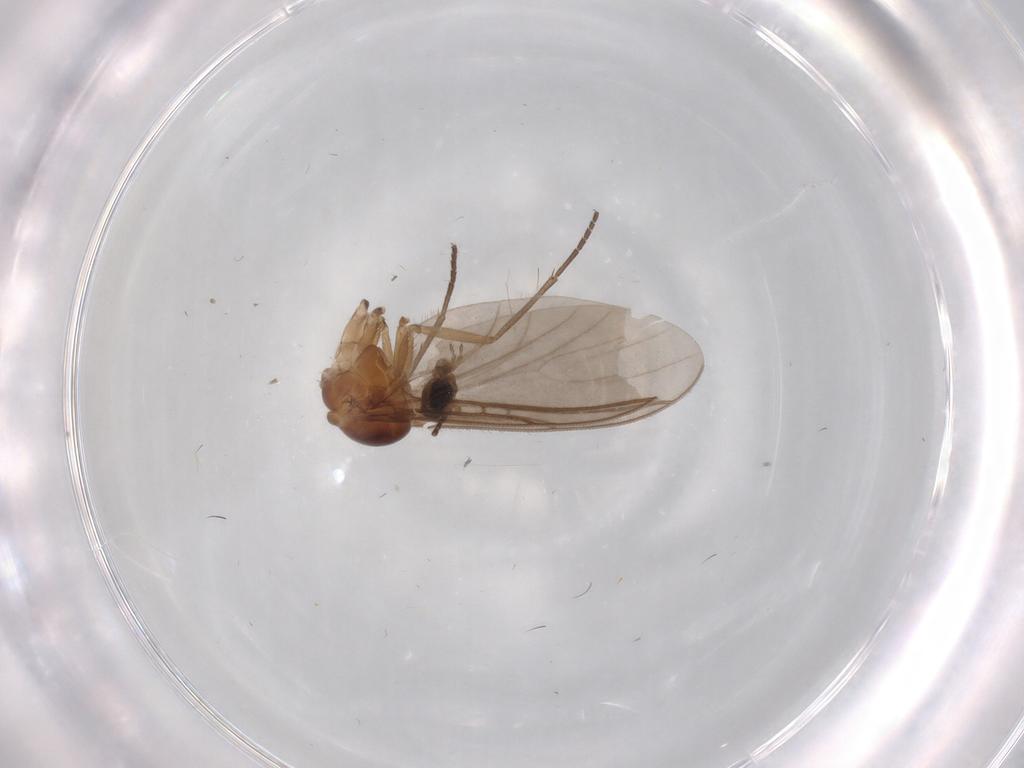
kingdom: Animalia
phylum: Arthropoda
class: Insecta
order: Diptera
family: Sciaridae
